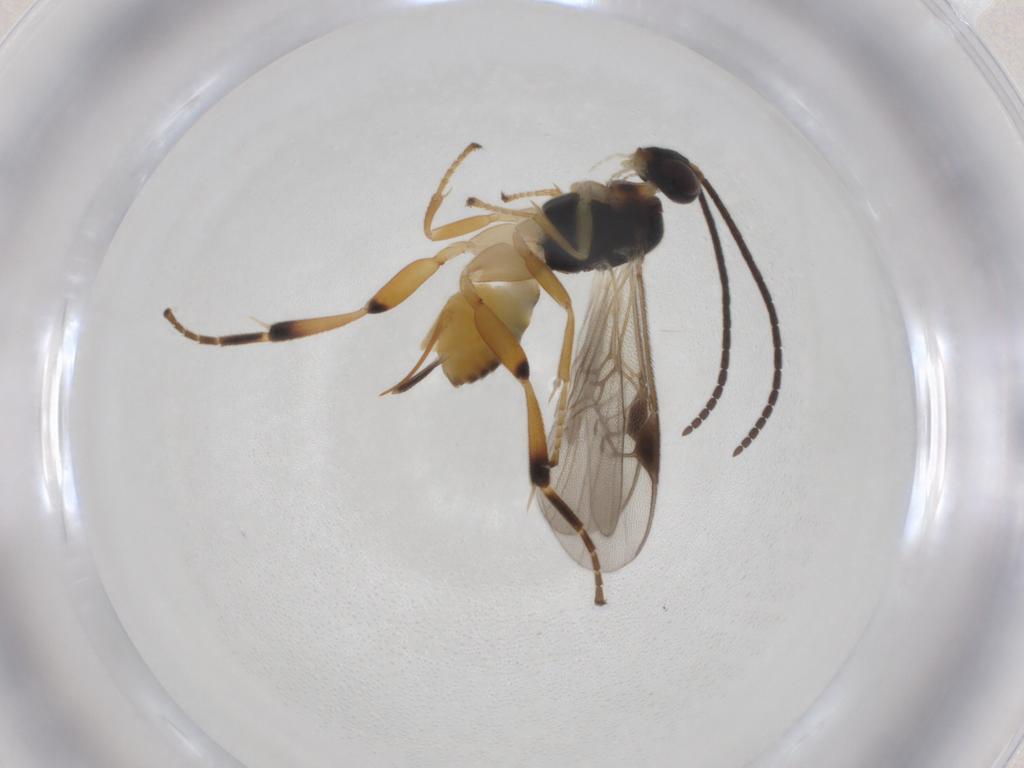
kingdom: Animalia
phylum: Arthropoda
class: Insecta
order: Hymenoptera
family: Braconidae
